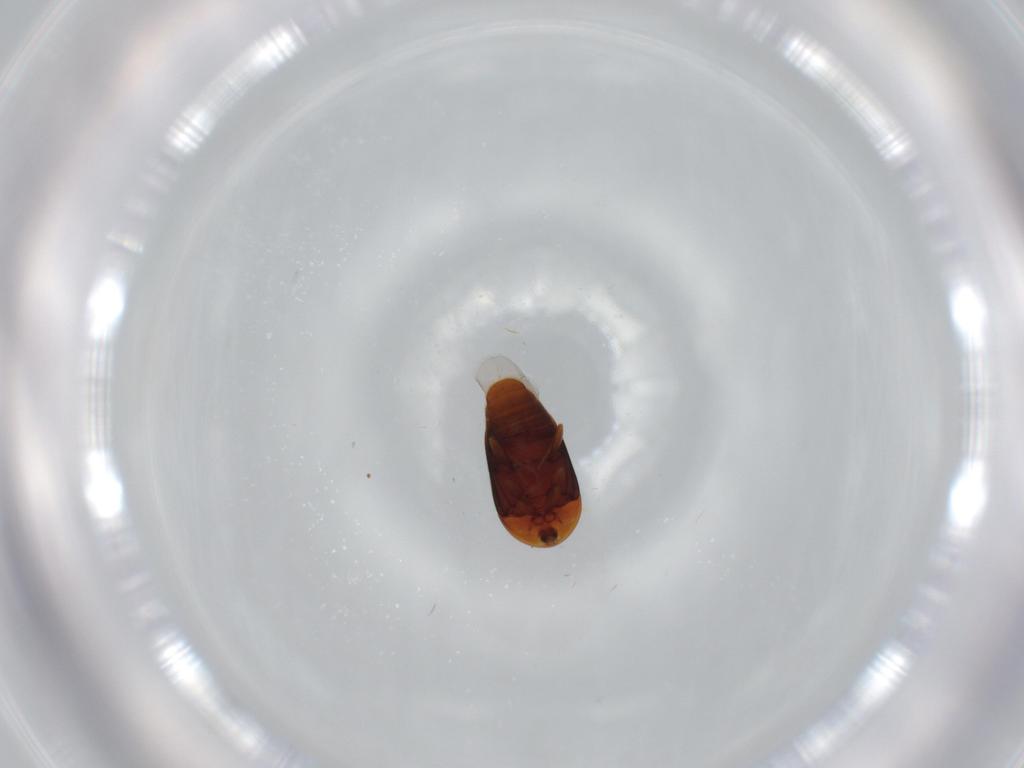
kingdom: Animalia
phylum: Arthropoda
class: Insecta
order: Coleoptera
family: Corylophidae
